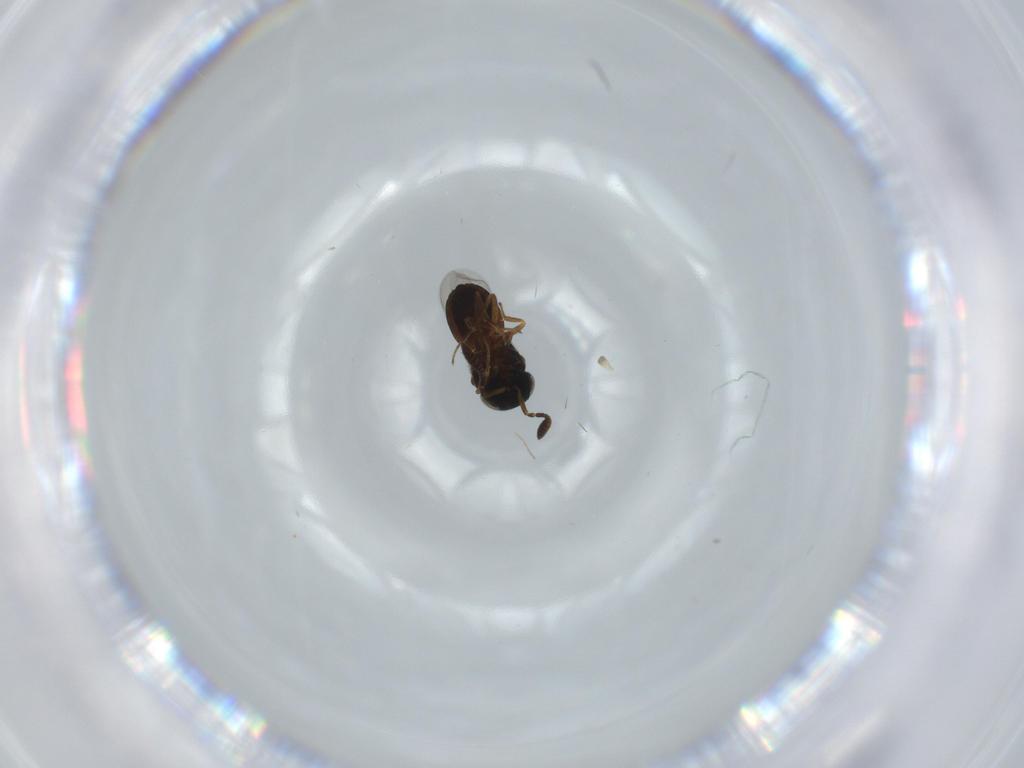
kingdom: Animalia
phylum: Arthropoda
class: Insecta
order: Hymenoptera
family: Scelionidae
